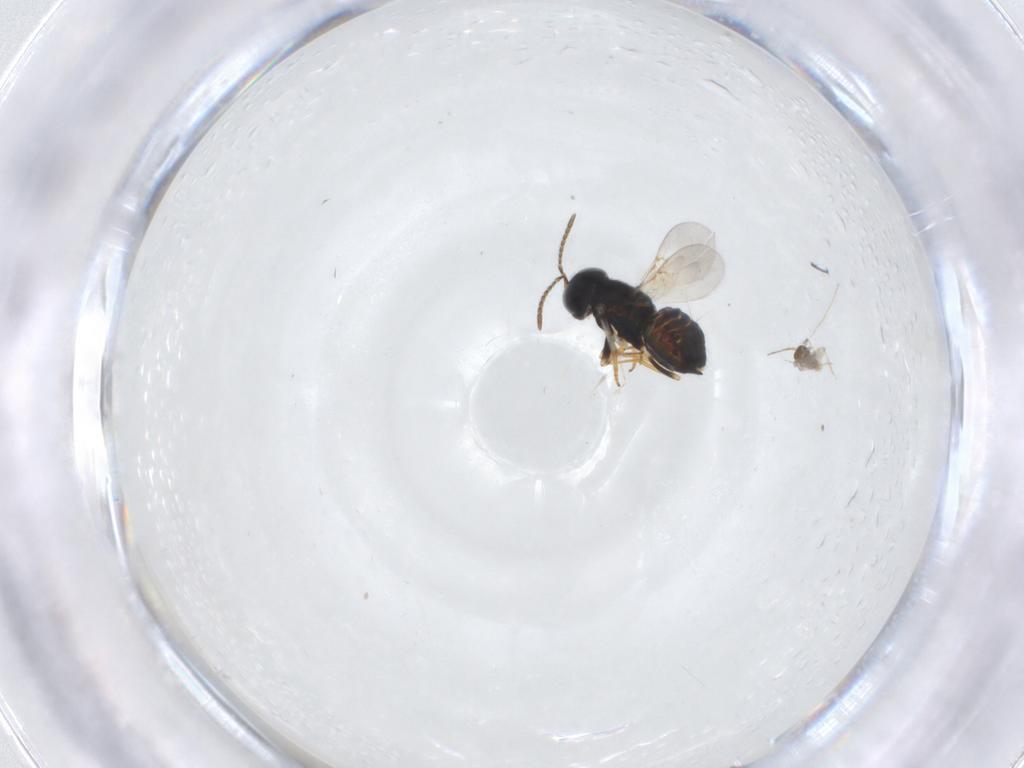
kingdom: Animalia
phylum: Arthropoda
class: Insecta
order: Diptera
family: Cecidomyiidae
